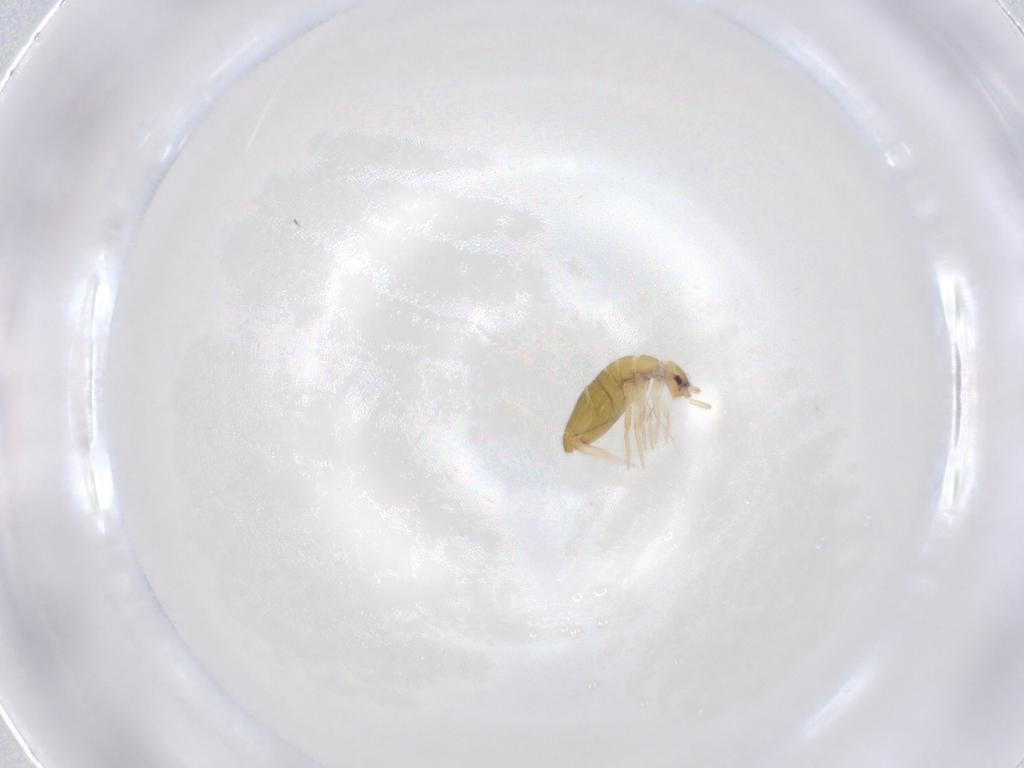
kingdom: Animalia
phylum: Arthropoda
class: Collembola
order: Entomobryomorpha
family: Entomobryidae
